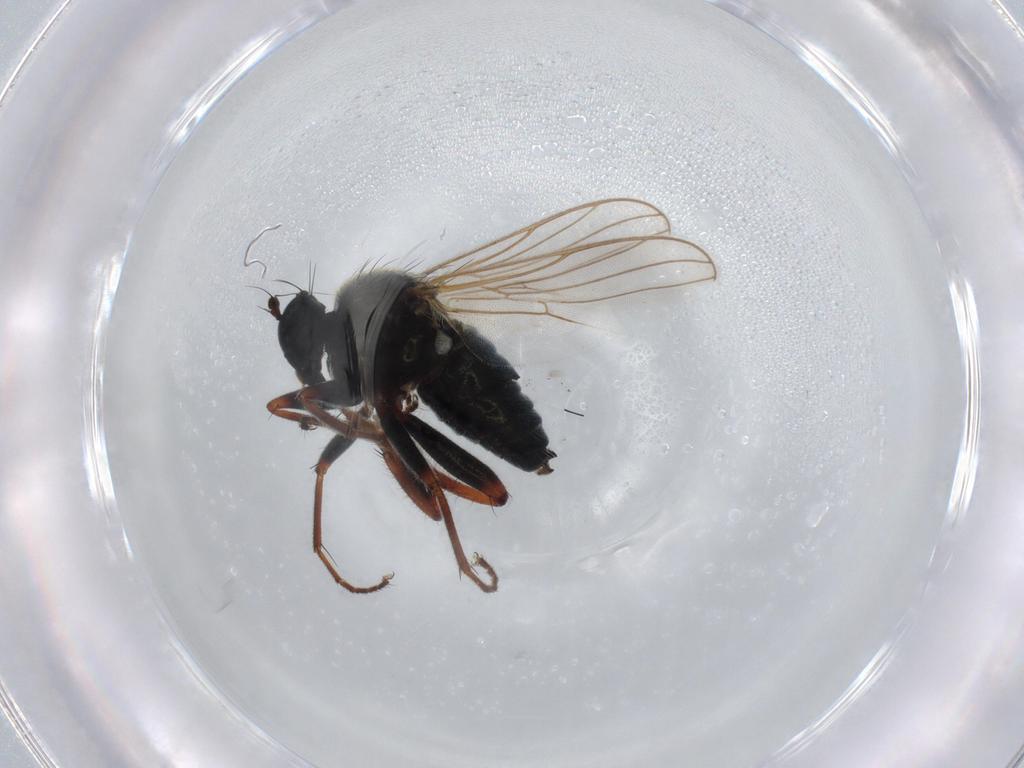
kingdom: Animalia
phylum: Arthropoda
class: Insecta
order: Diptera
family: Hybotidae
